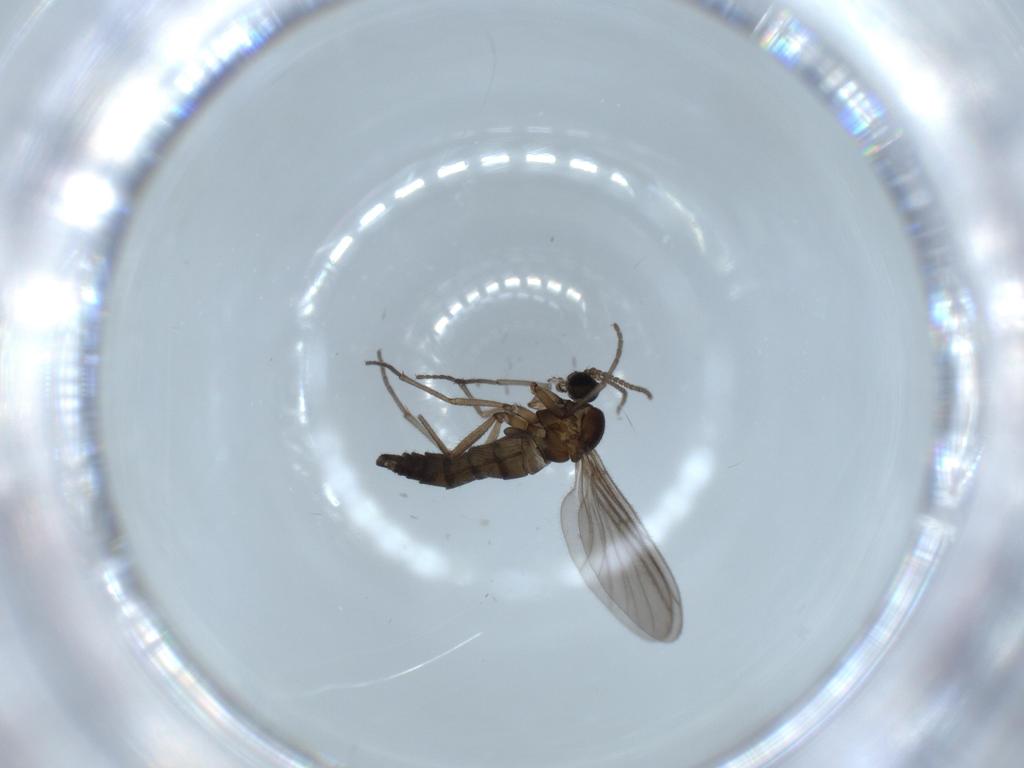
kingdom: Animalia
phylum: Arthropoda
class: Insecta
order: Diptera
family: Sciaridae
